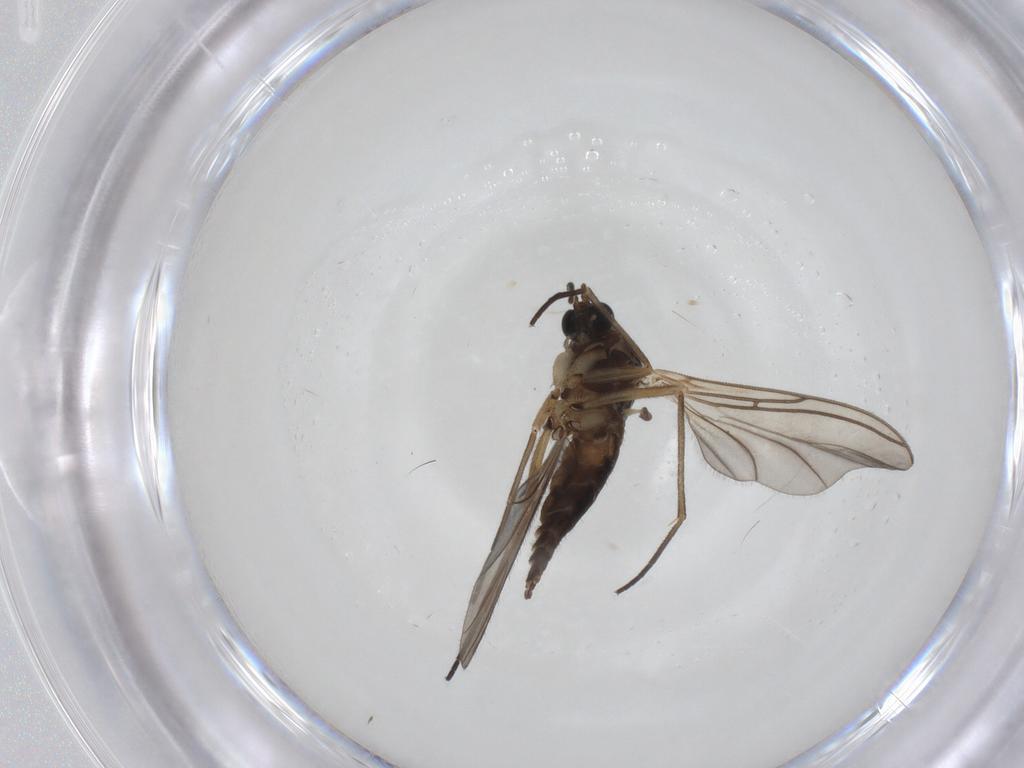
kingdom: Animalia
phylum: Arthropoda
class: Insecta
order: Diptera
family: Sciaridae
